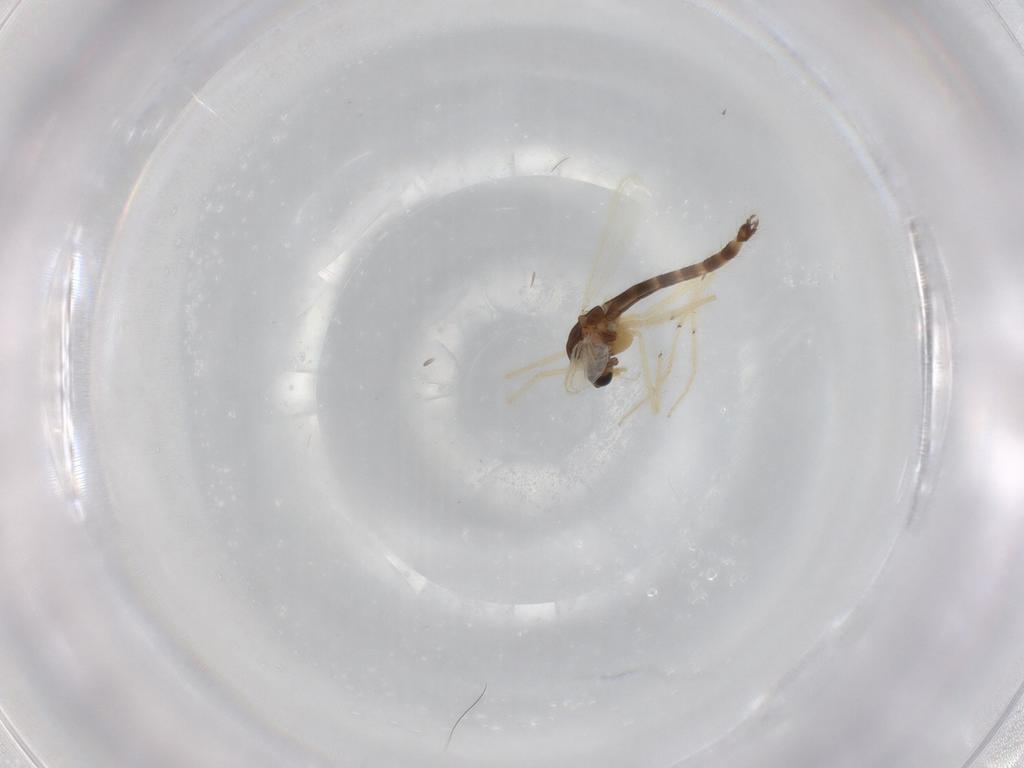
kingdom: Animalia
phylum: Arthropoda
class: Insecta
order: Diptera
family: Chironomidae
